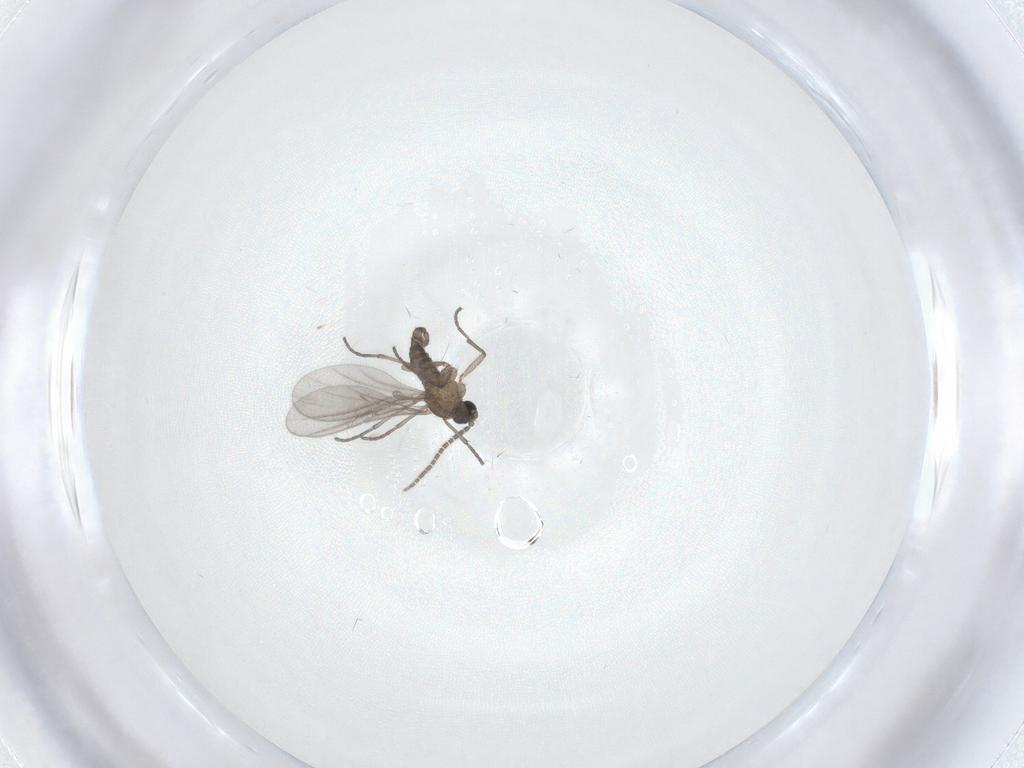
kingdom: Animalia
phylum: Arthropoda
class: Insecta
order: Diptera
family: Sciaridae
